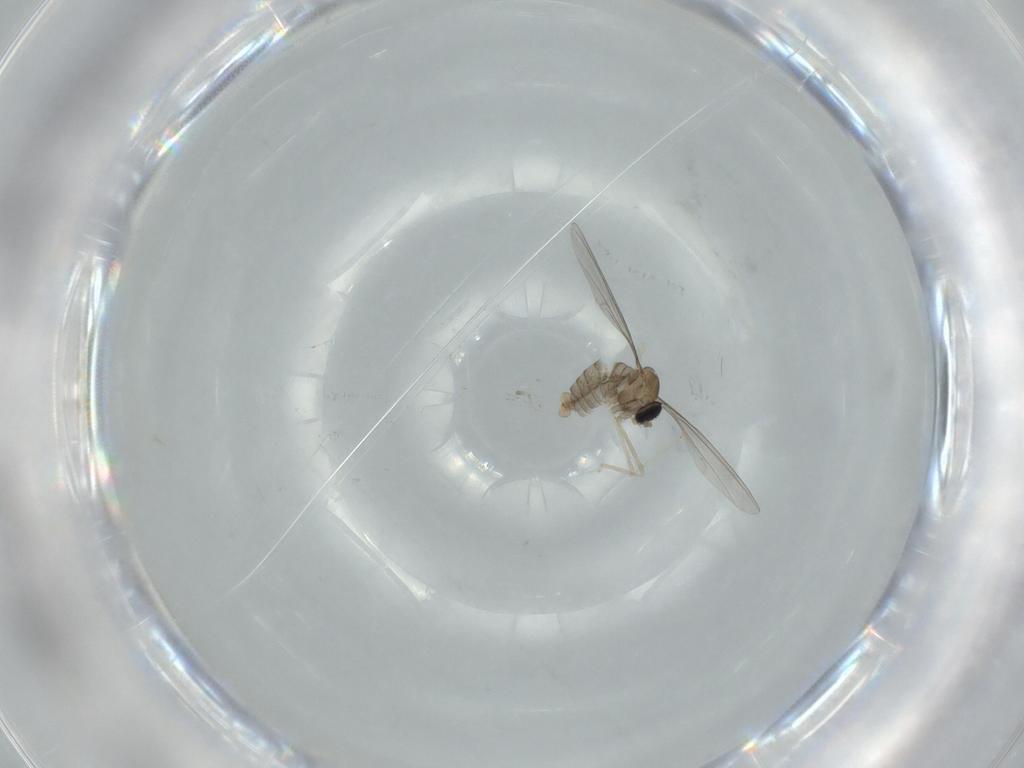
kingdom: Animalia
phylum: Arthropoda
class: Insecta
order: Diptera
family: Cecidomyiidae
